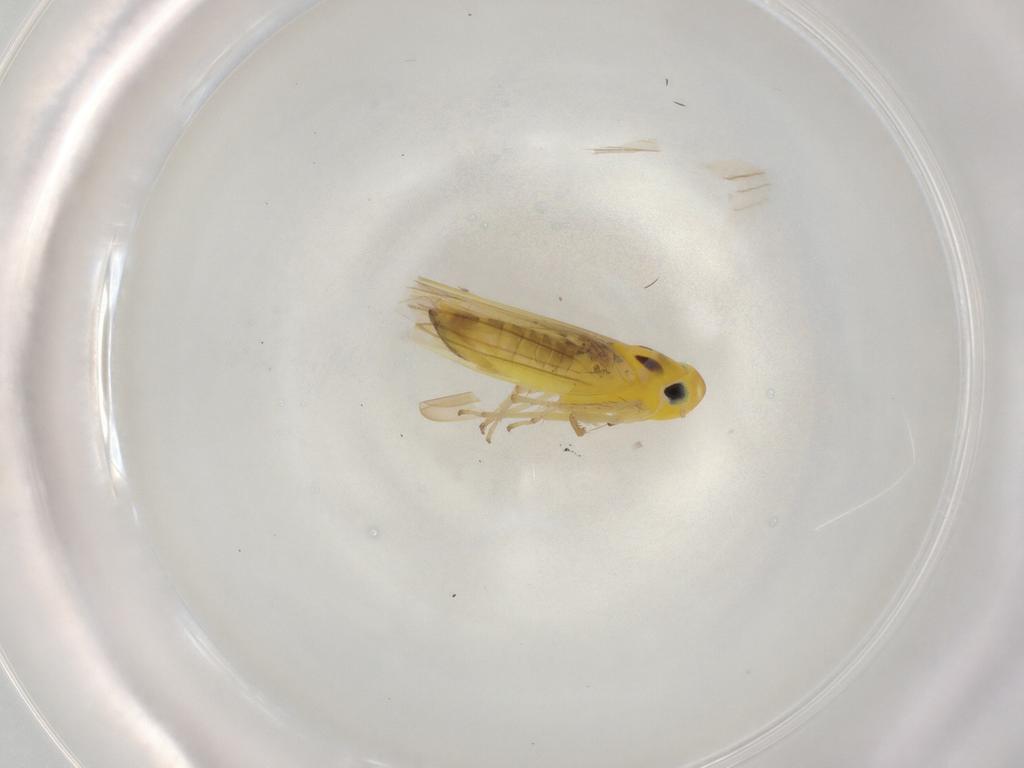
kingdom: Animalia
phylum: Arthropoda
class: Insecta
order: Hemiptera
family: Cicadellidae
